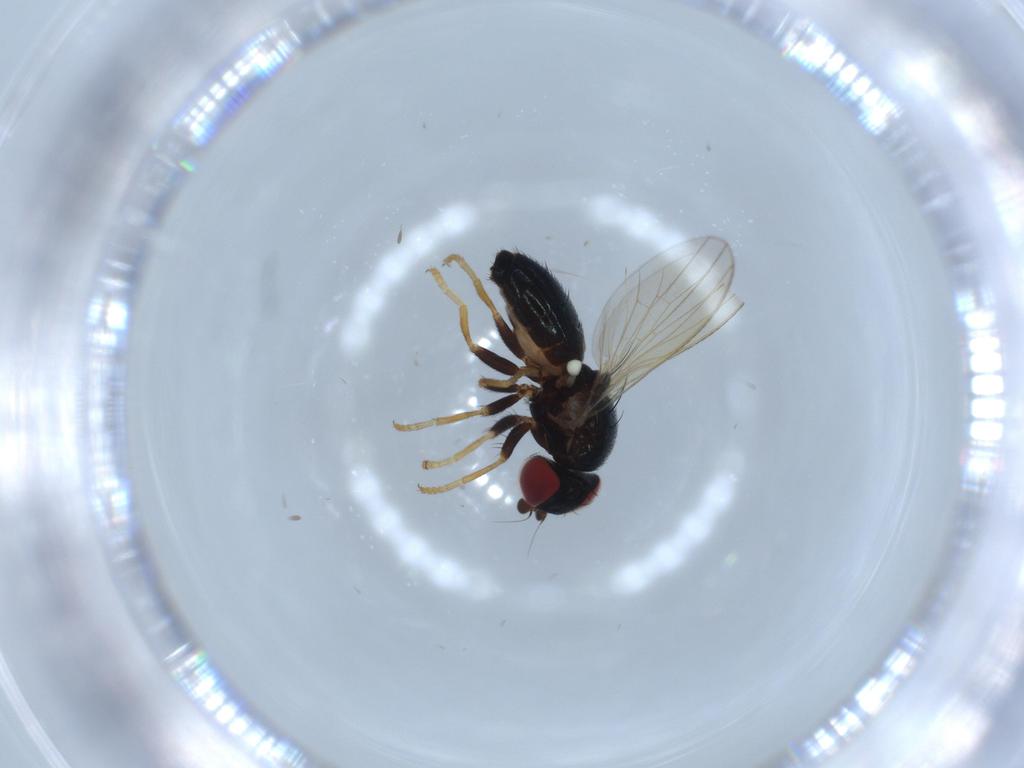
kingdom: Animalia
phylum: Arthropoda
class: Insecta
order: Diptera
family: Chamaemyiidae
